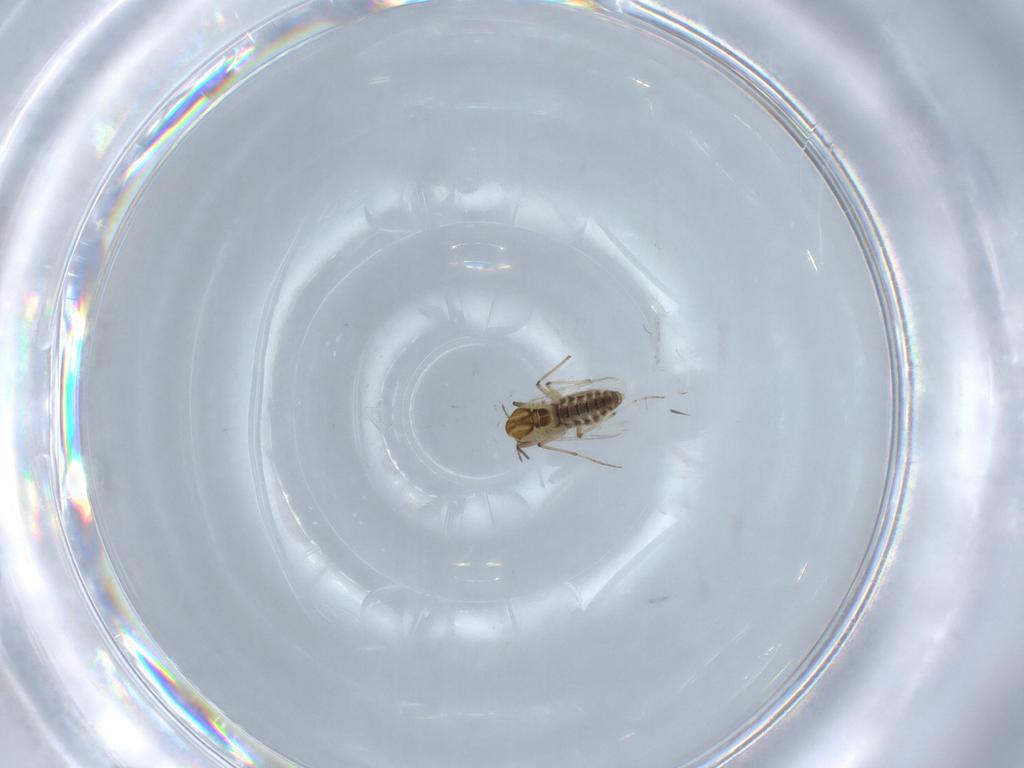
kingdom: Animalia
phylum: Arthropoda
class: Insecta
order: Diptera
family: Chironomidae
